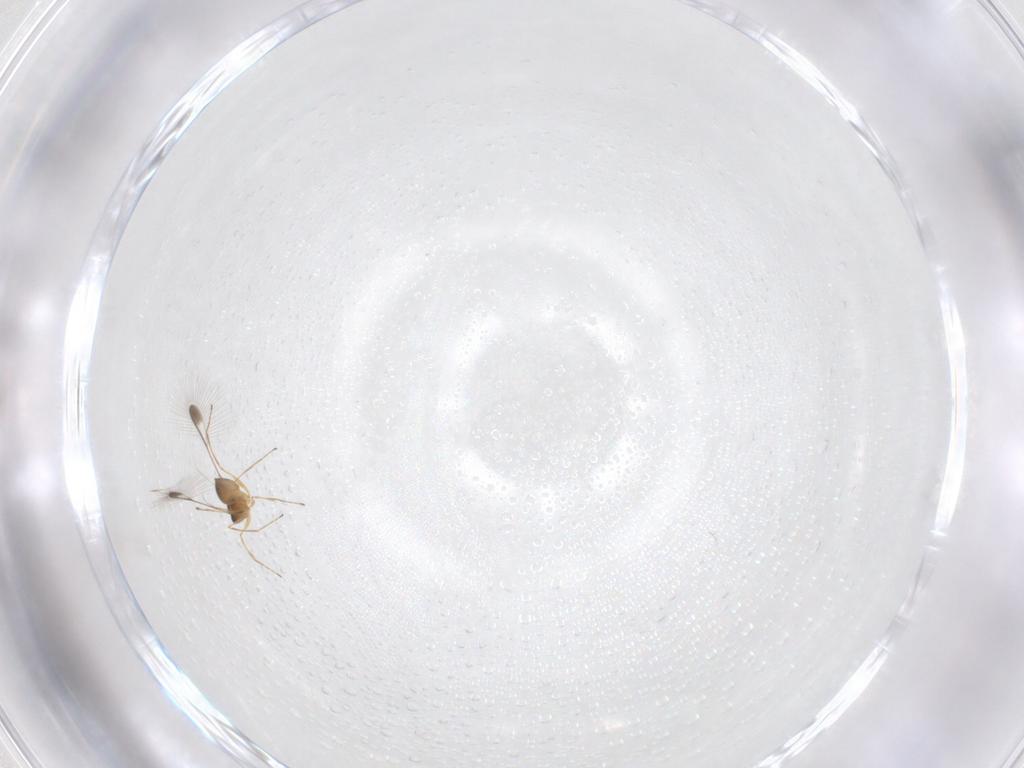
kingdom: Animalia
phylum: Arthropoda
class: Insecta
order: Hymenoptera
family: Mymaridae
